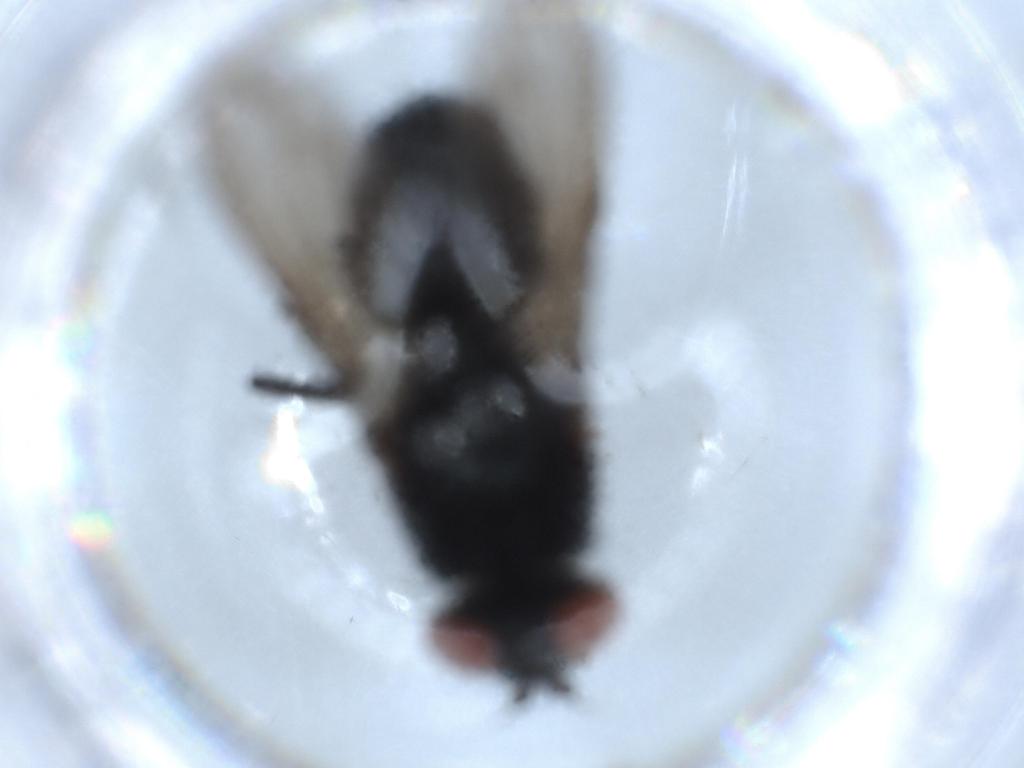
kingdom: Animalia
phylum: Arthropoda
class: Insecta
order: Diptera
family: Sarcophagidae
